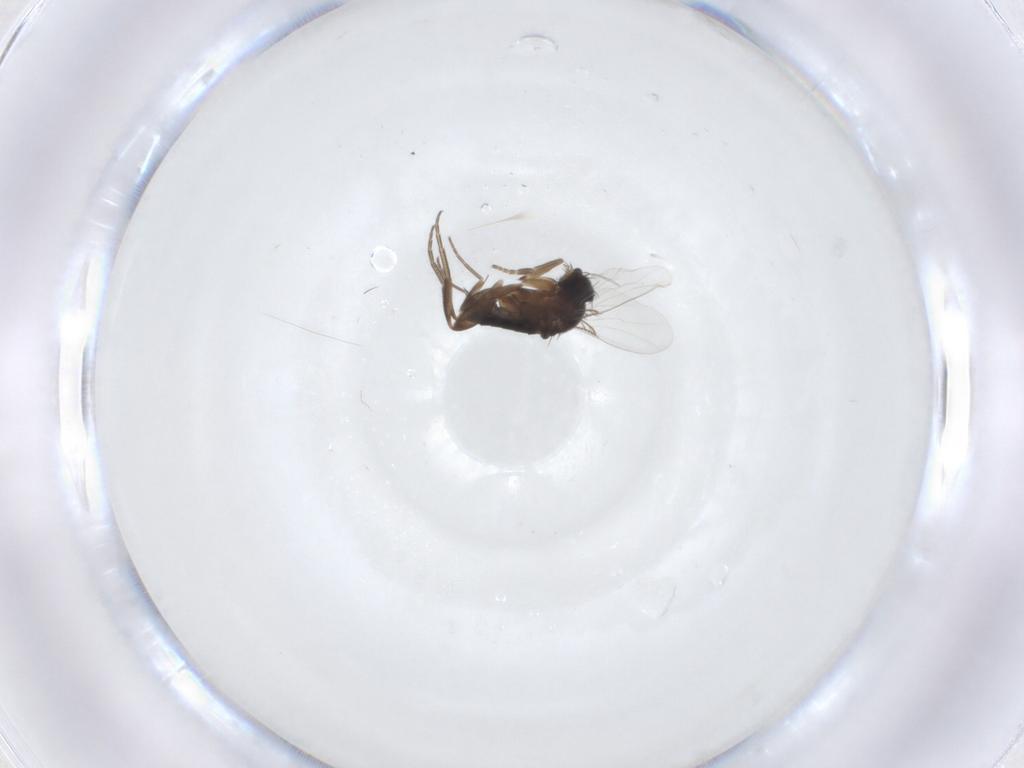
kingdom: Animalia
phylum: Arthropoda
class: Insecta
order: Diptera
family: Phoridae
